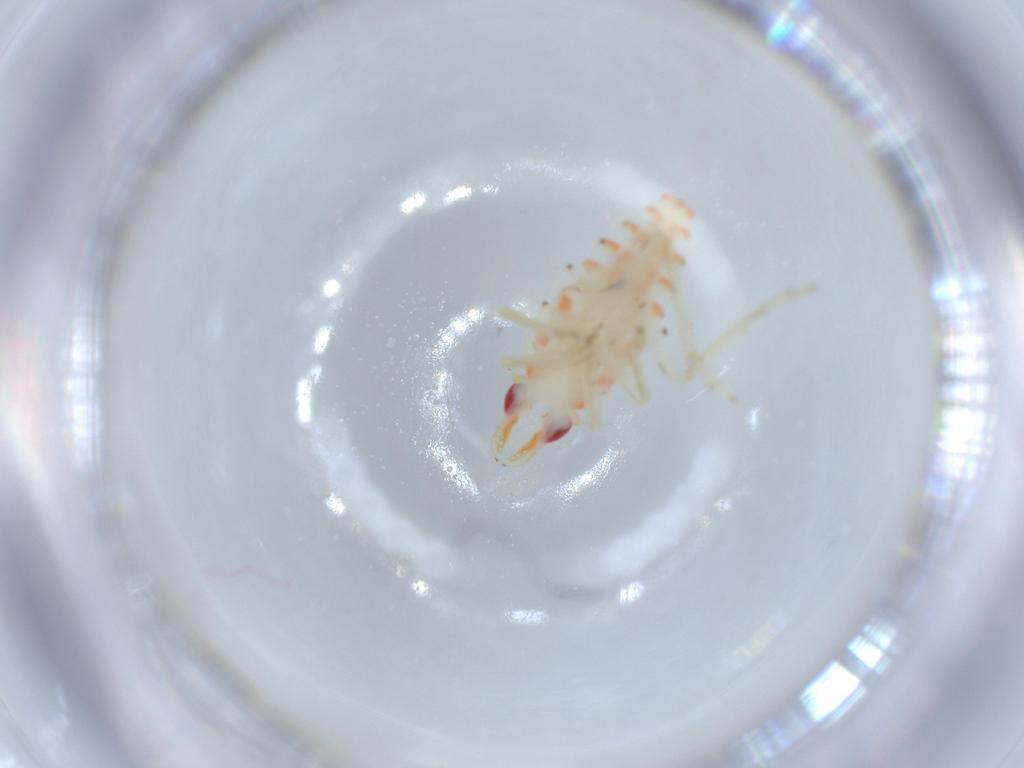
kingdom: Animalia
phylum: Arthropoda
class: Insecta
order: Hemiptera
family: Tropiduchidae
